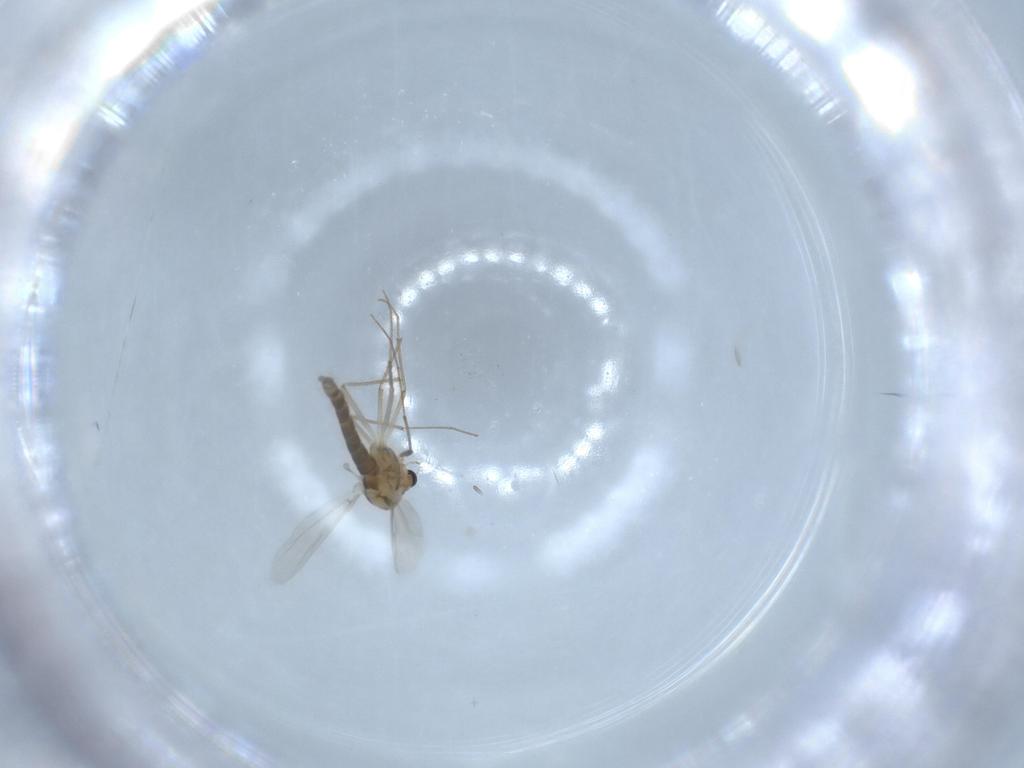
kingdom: Animalia
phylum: Arthropoda
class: Insecta
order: Diptera
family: Chironomidae
